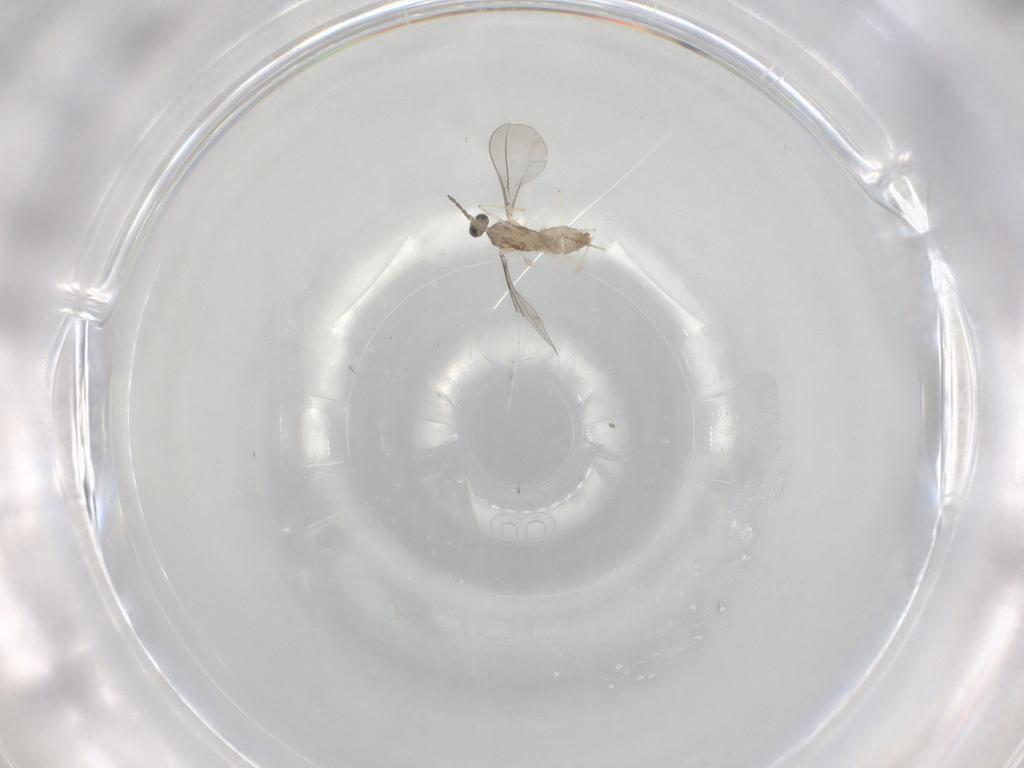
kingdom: Animalia
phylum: Arthropoda
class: Insecta
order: Diptera
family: Cecidomyiidae
